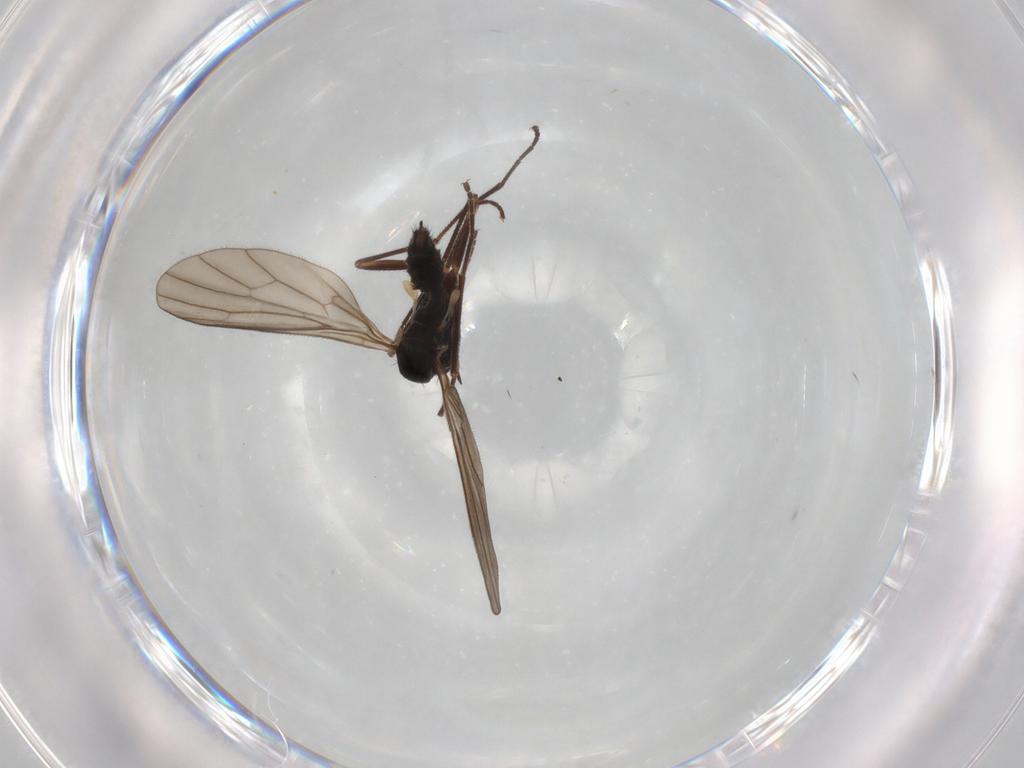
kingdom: Animalia
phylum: Arthropoda
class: Insecta
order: Diptera
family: Empididae
